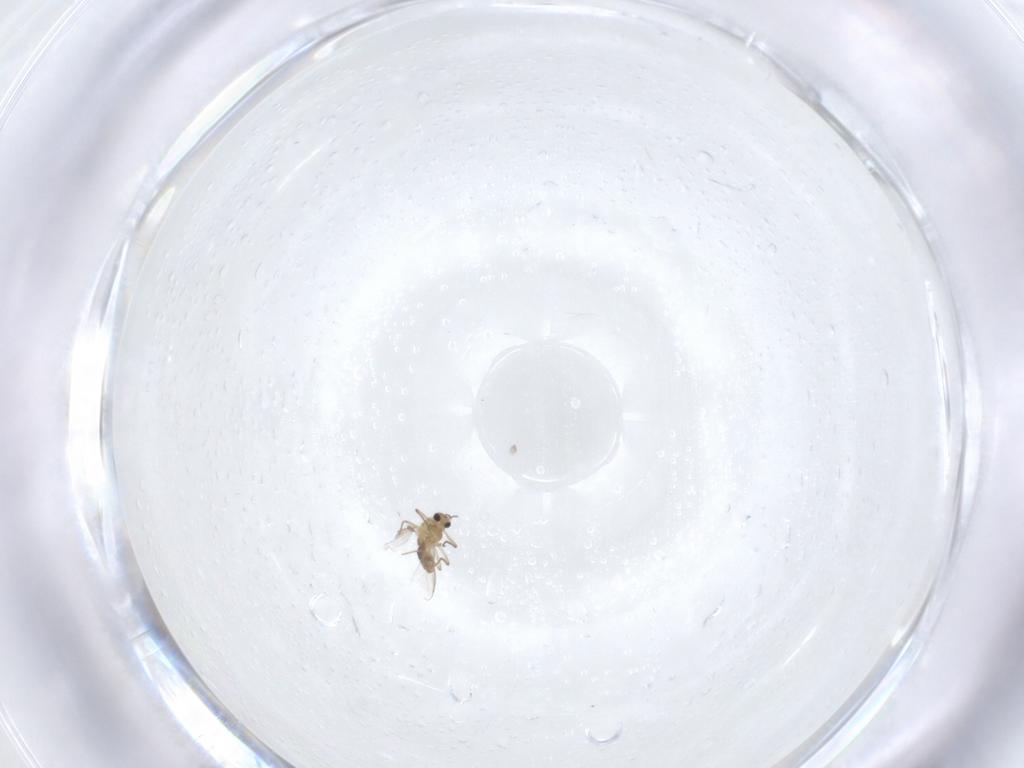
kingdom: Animalia
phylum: Arthropoda
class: Insecta
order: Diptera
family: Chironomidae
